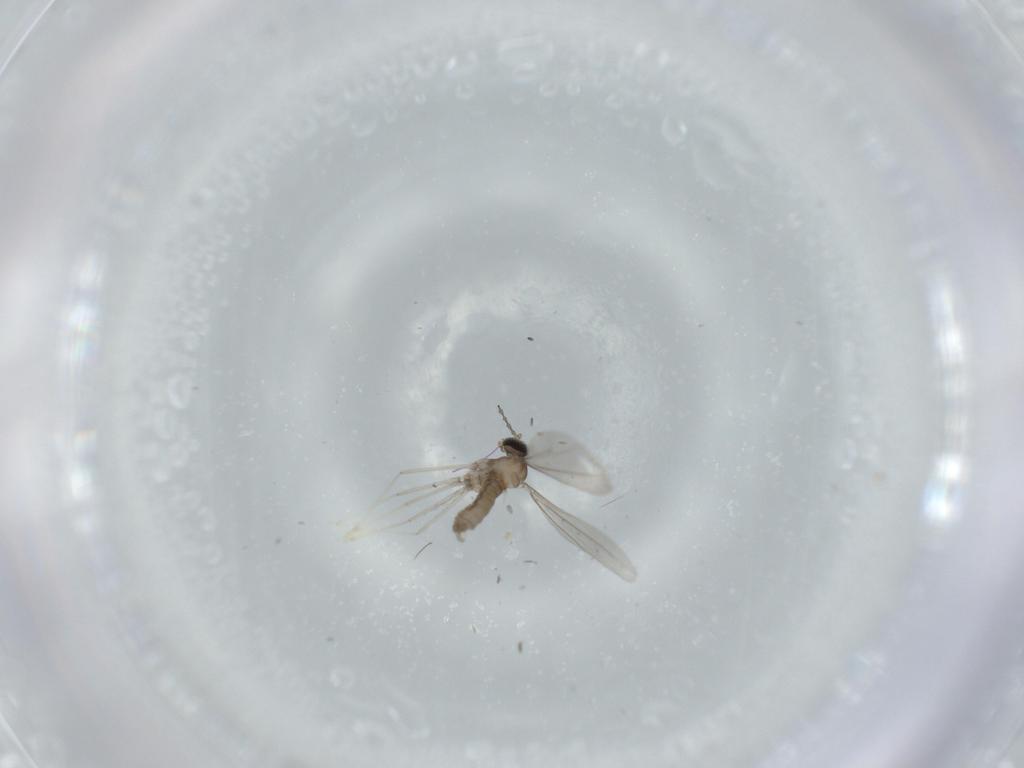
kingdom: Animalia
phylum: Arthropoda
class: Insecta
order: Diptera
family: Cecidomyiidae
